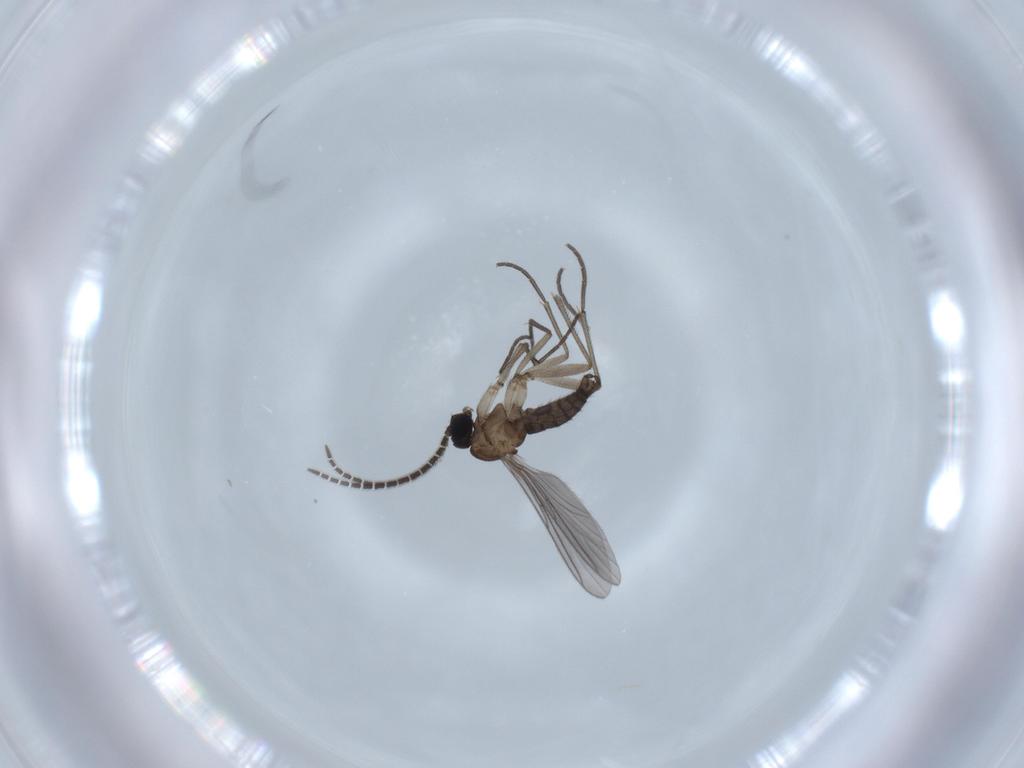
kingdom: Animalia
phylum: Arthropoda
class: Insecta
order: Diptera
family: Sciaridae
